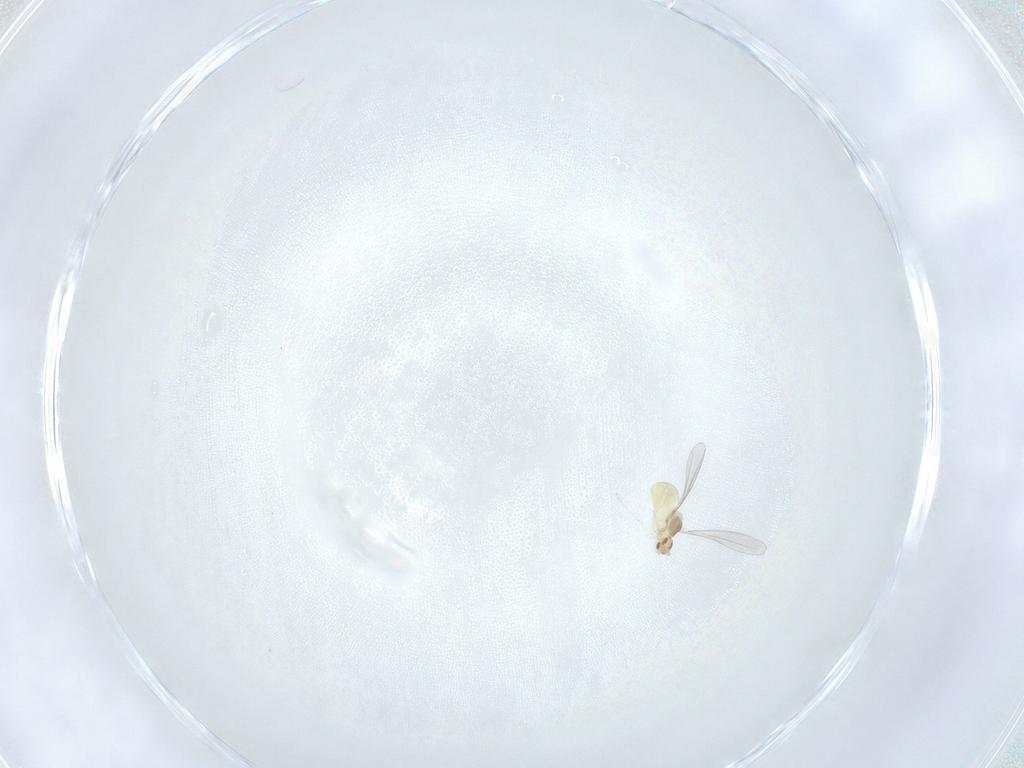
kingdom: Animalia
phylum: Arthropoda
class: Insecta
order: Diptera
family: Cecidomyiidae
